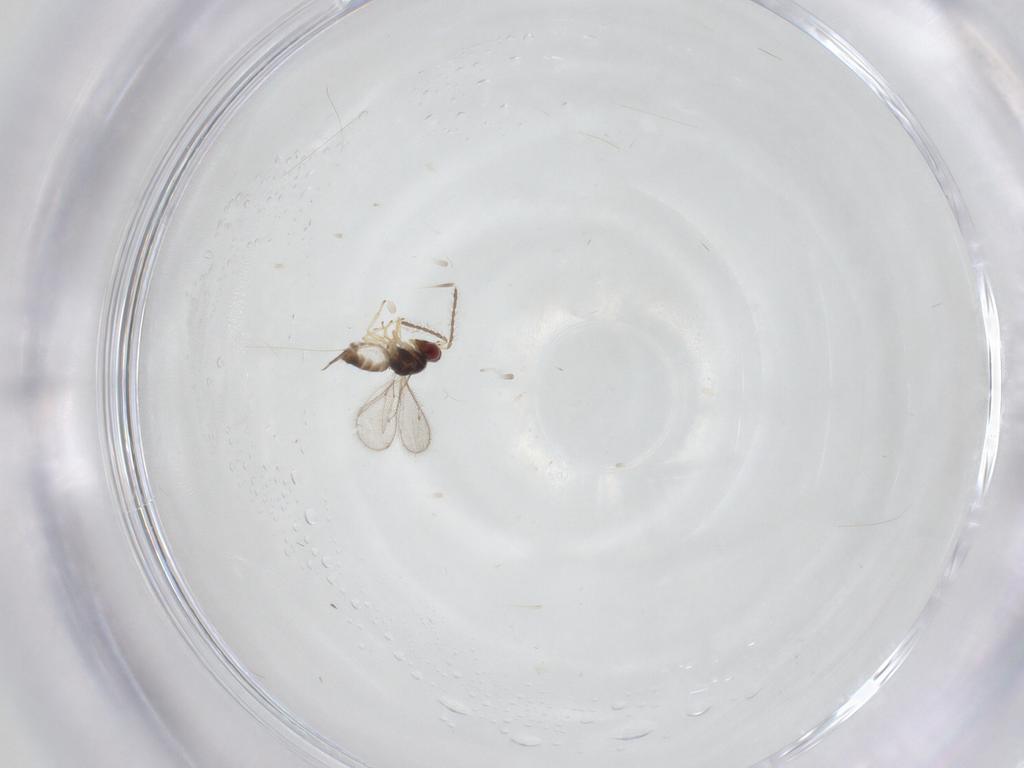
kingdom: Animalia
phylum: Arthropoda
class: Insecta
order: Hymenoptera
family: Eulophidae
